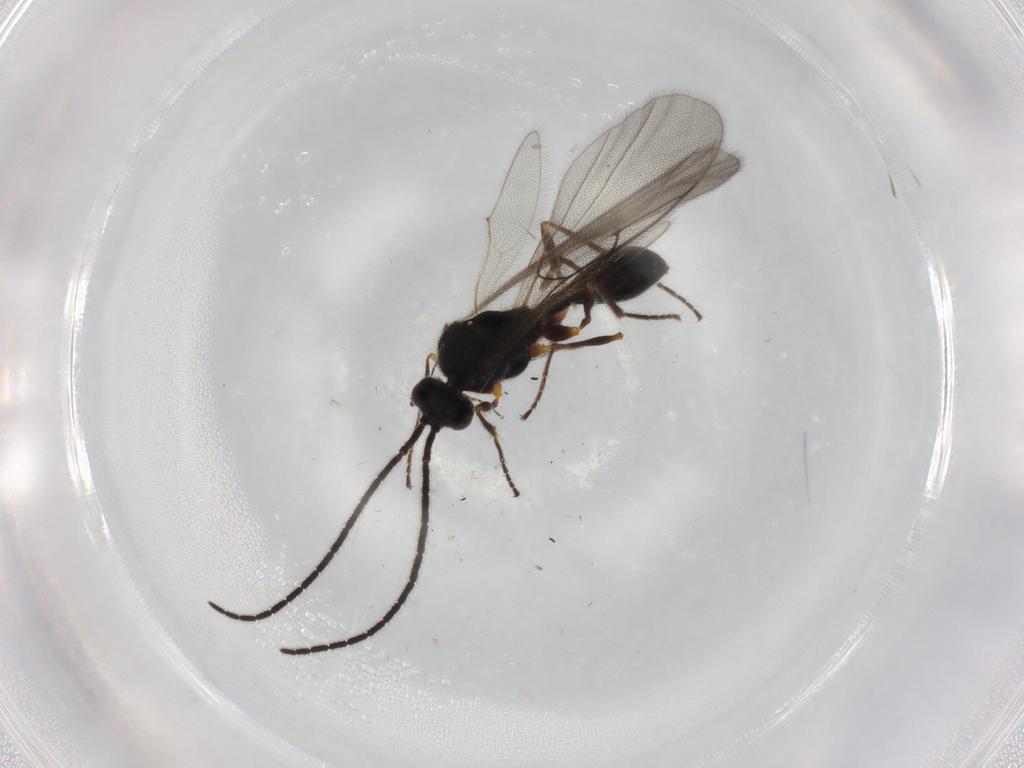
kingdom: Animalia
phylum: Arthropoda
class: Insecta
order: Hymenoptera
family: Diapriidae
